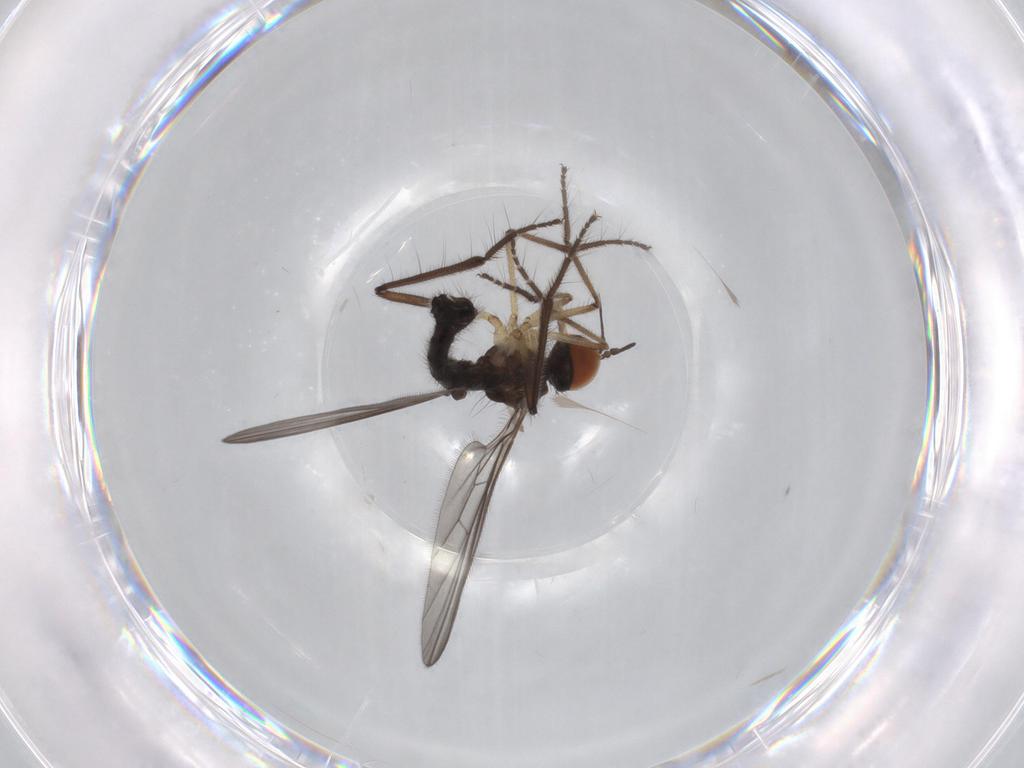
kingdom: Animalia
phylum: Arthropoda
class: Insecta
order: Diptera
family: Empididae
